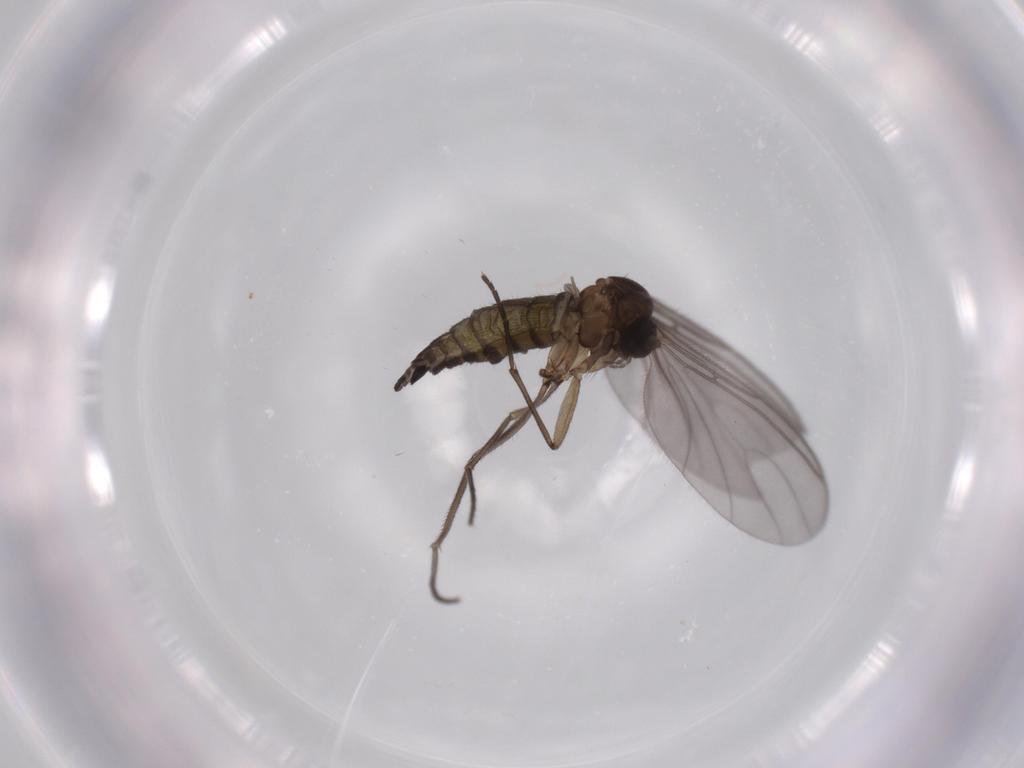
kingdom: Animalia
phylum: Arthropoda
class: Insecta
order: Diptera
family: Sciaridae
